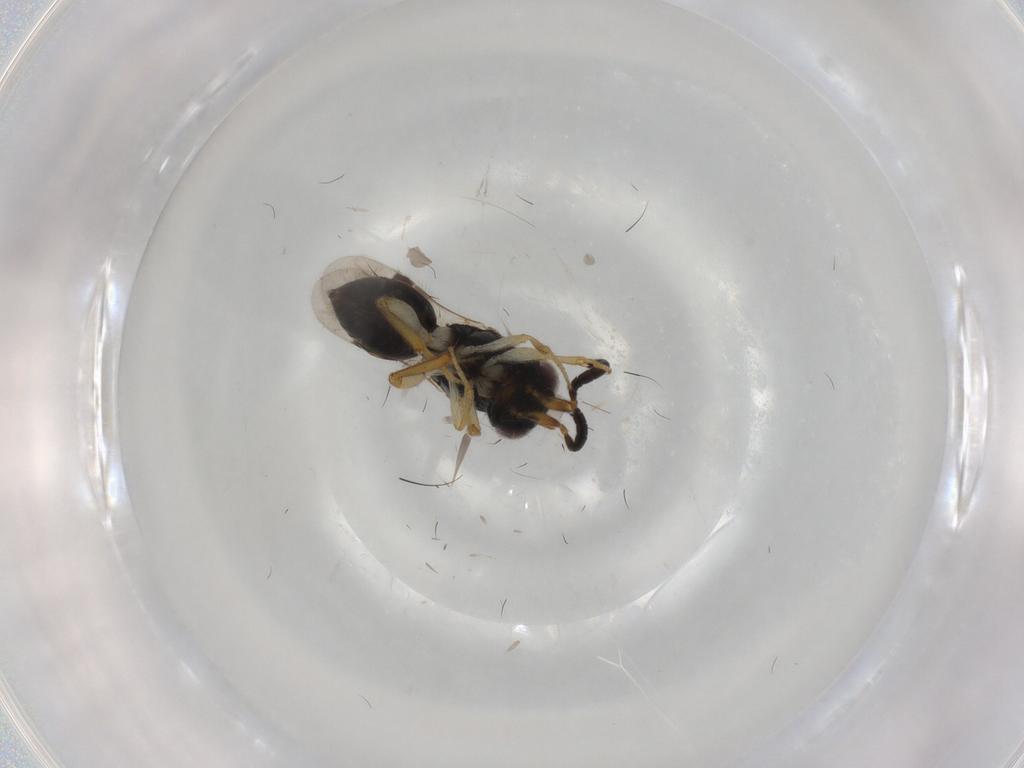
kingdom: Animalia
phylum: Arthropoda
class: Insecta
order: Hymenoptera
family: Megaspilidae
